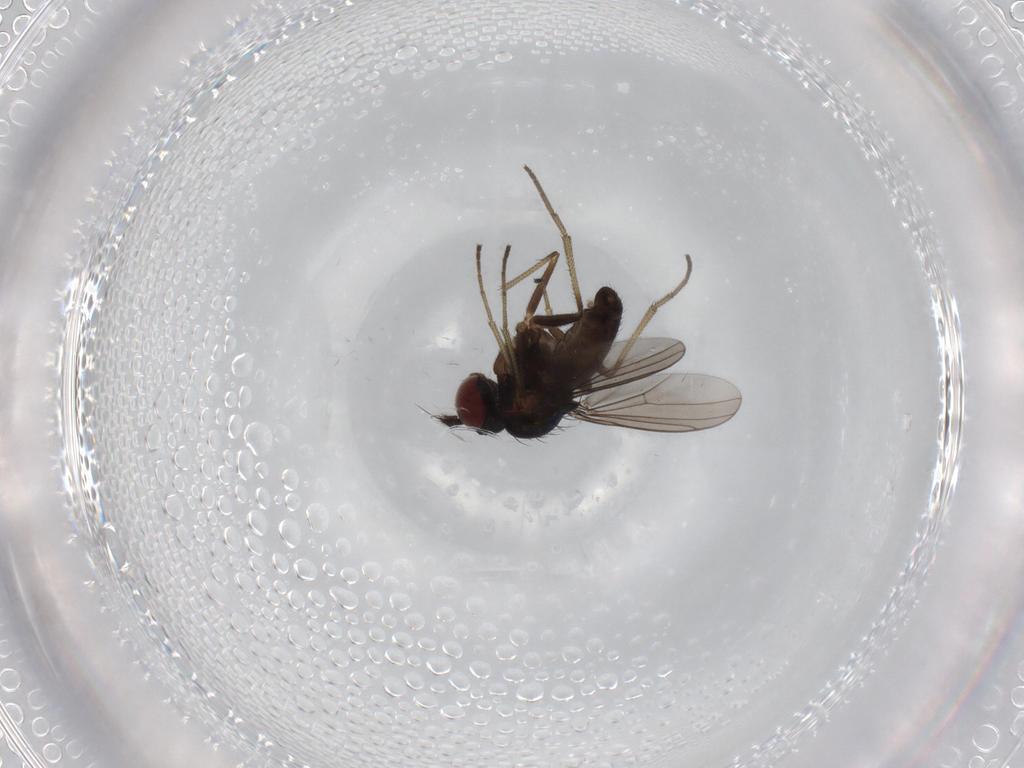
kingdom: Animalia
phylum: Arthropoda
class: Insecta
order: Diptera
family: Dolichopodidae
